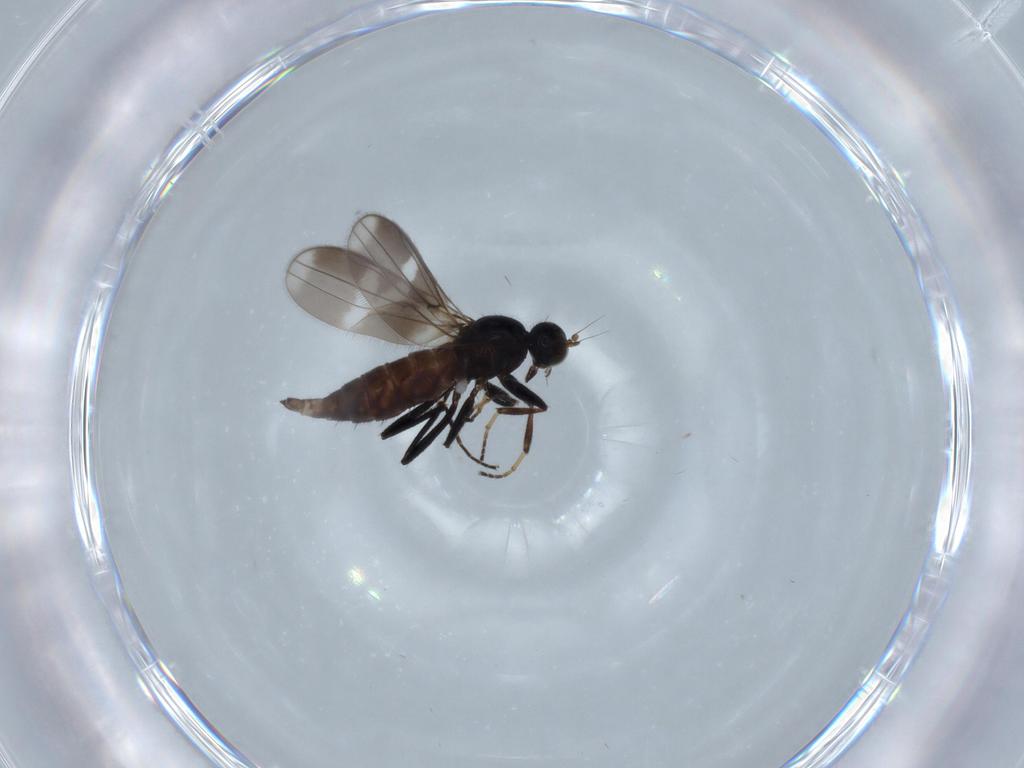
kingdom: Animalia
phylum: Arthropoda
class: Insecta
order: Diptera
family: Hybotidae
